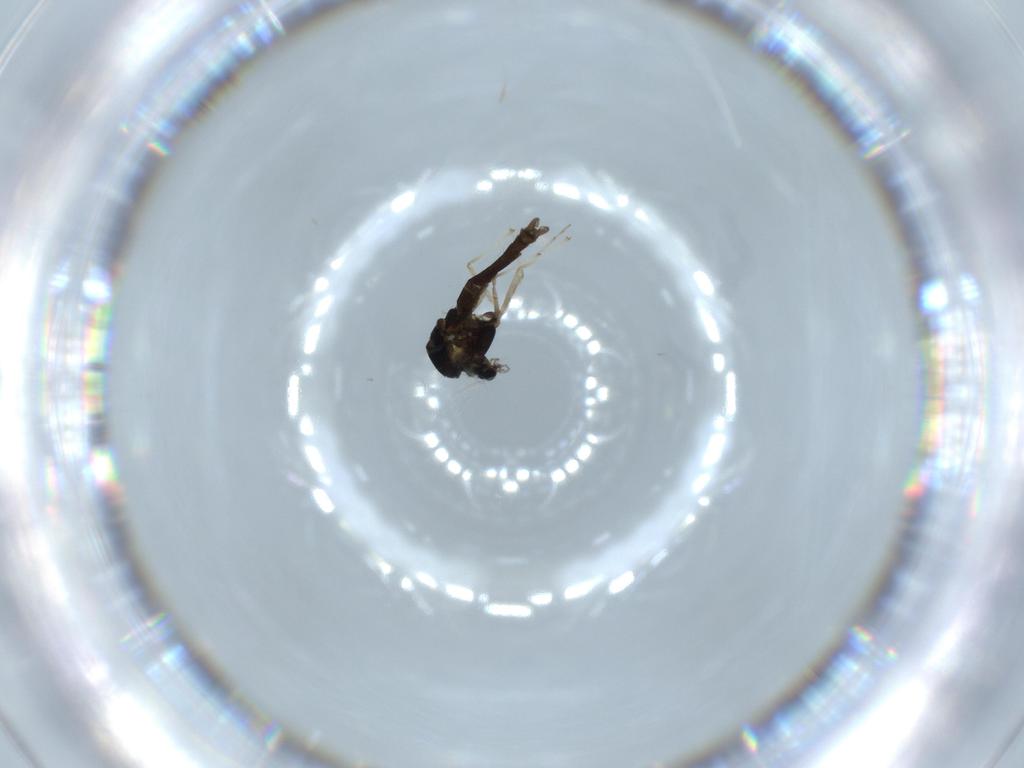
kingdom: Animalia
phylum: Arthropoda
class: Insecta
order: Diptera
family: Chironomidae
